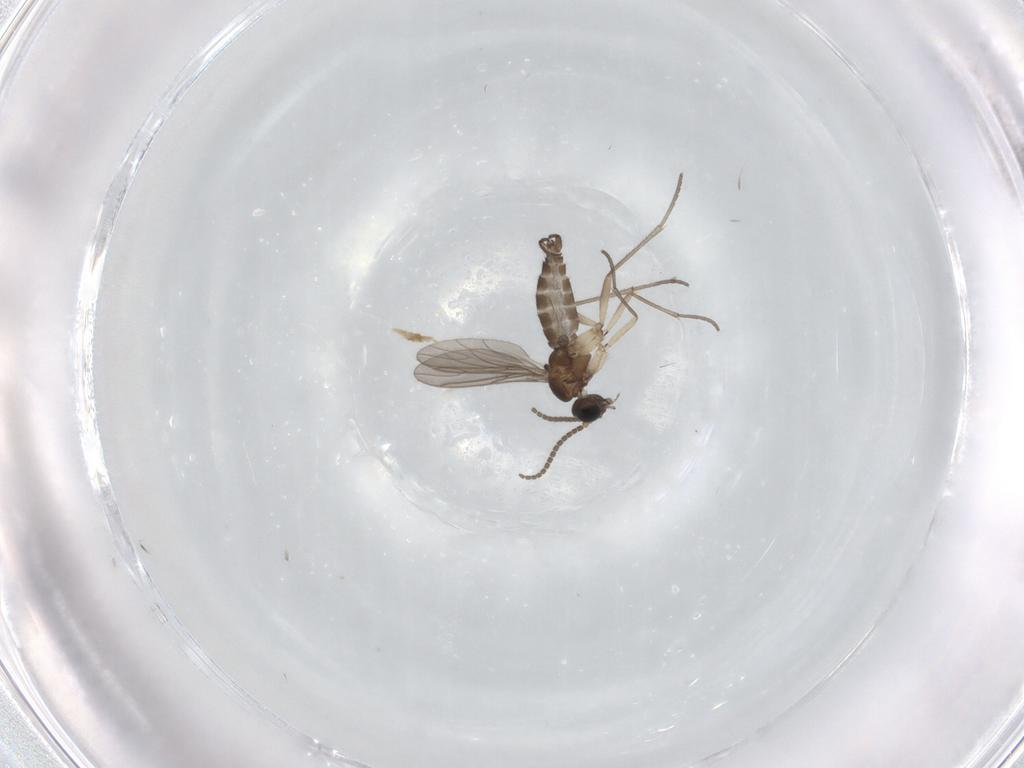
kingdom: Animalia
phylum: Arthropoda
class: Insecta
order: Diptera
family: Sciaridae
